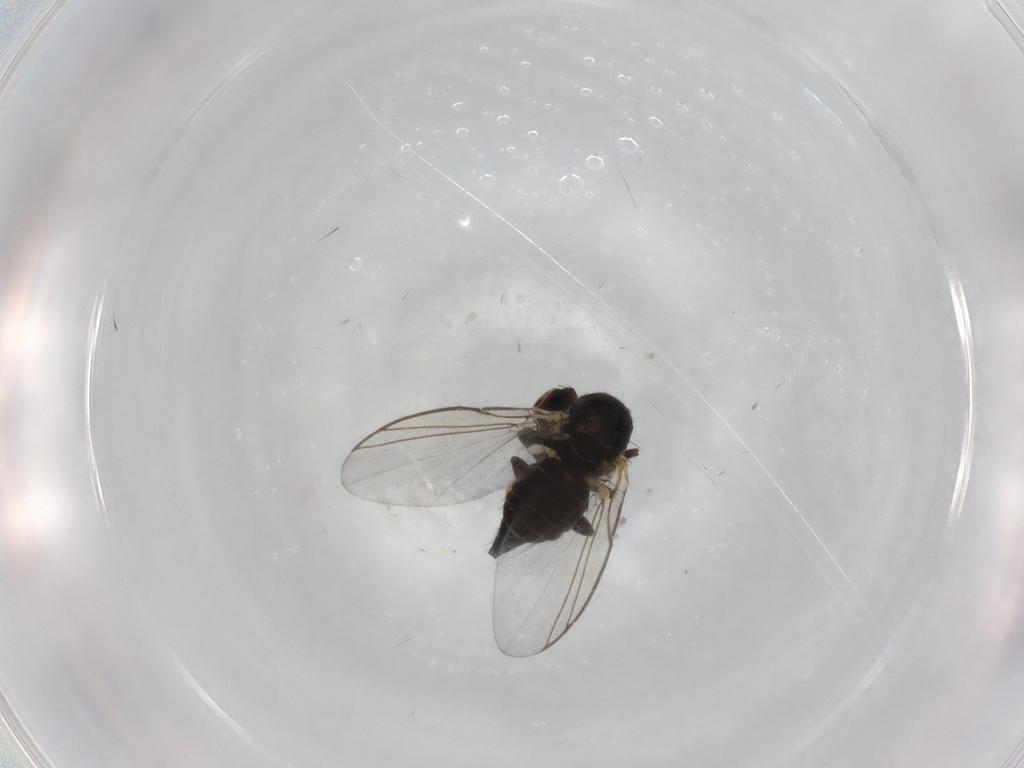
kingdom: Animalia
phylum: Arthropoda
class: Insecta
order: Diptera
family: Agromyzidae
